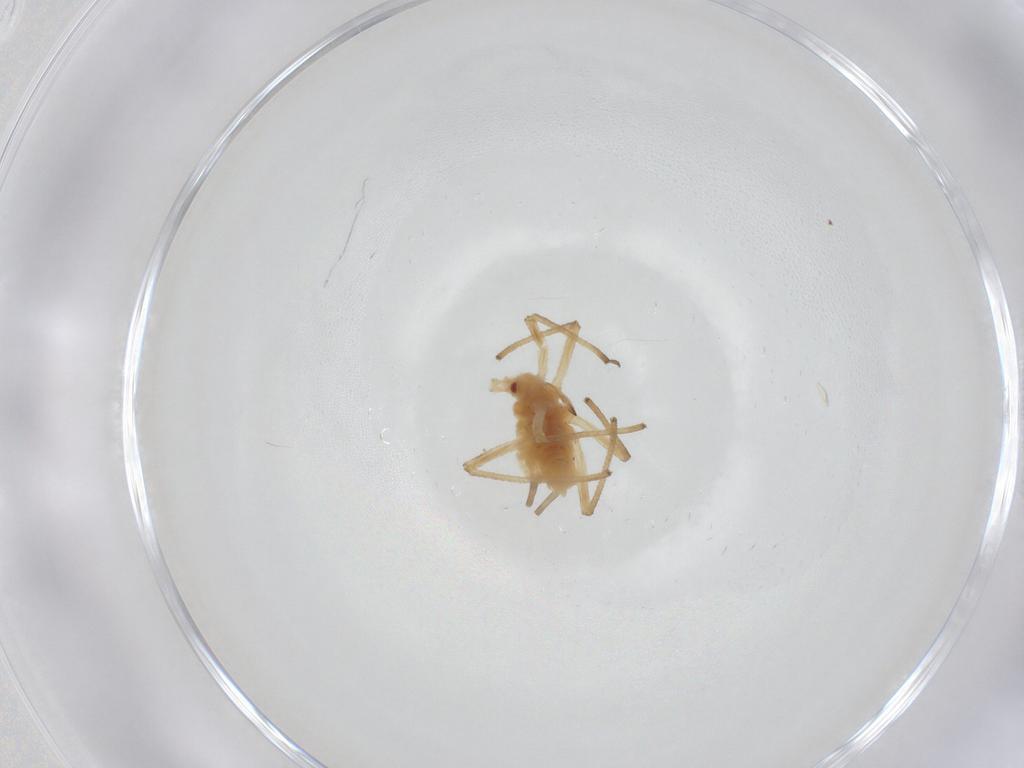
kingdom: Animalia
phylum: Arthropoda
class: Insecta
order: Hemiptera
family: Aphididae
